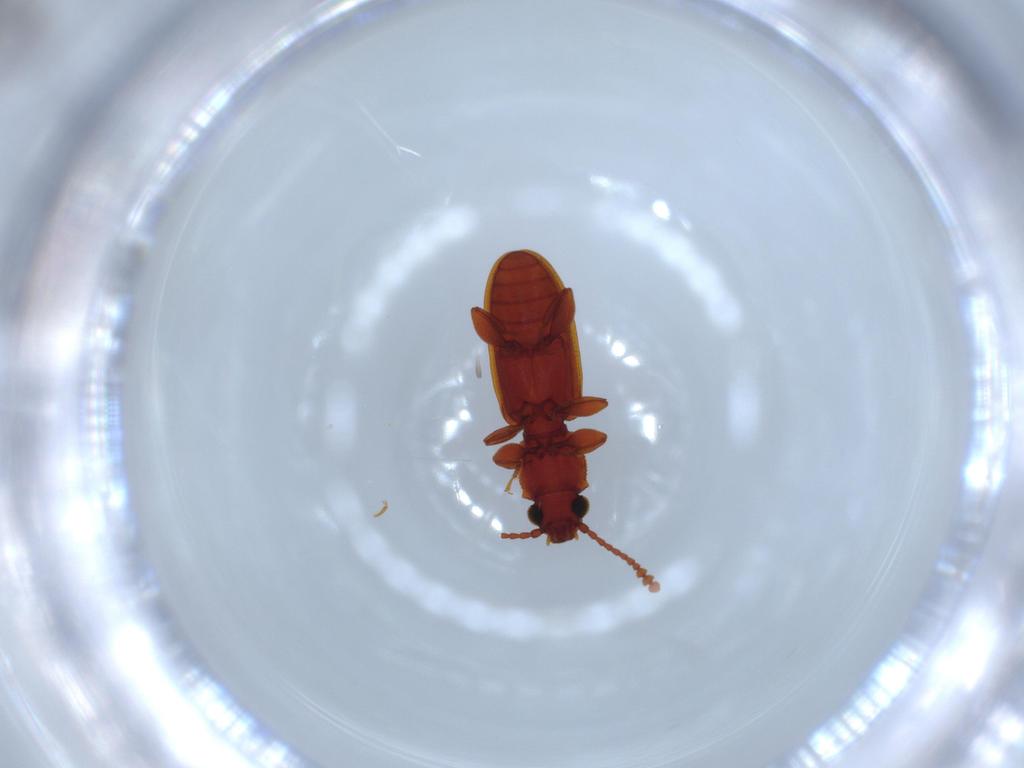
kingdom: Animalia
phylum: Arthropoda
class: Insecta
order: Coleoptera
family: Silvanidae
